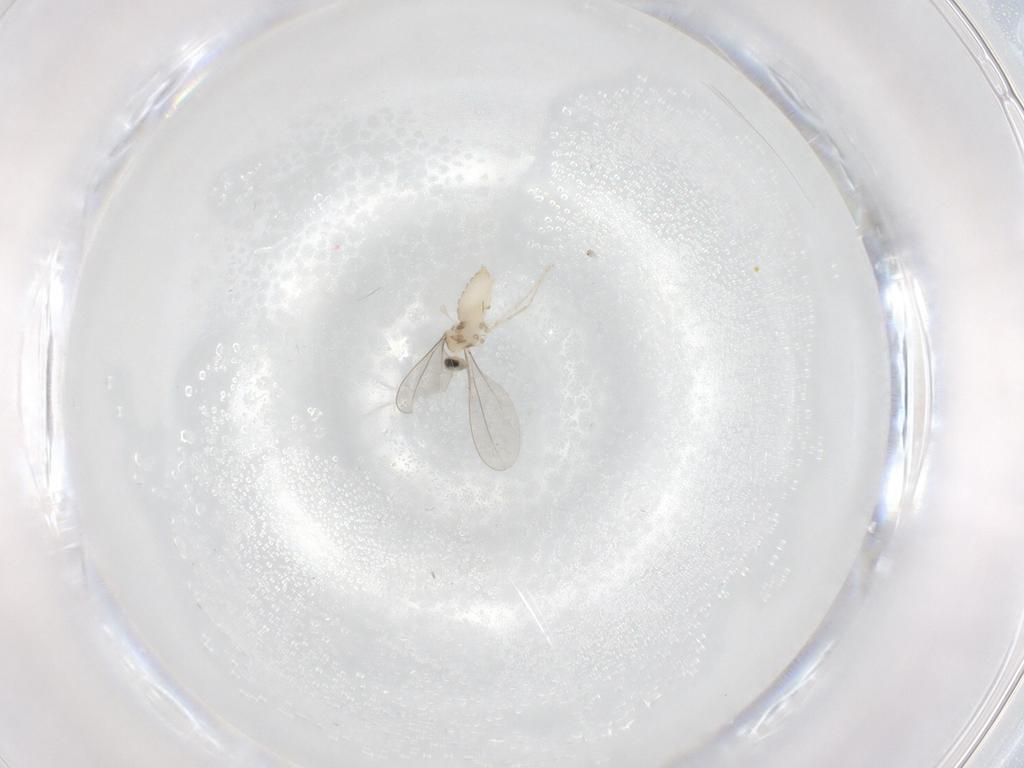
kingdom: Animalia
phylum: Arthropoda
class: Insecta
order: Diptera
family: Cecidomyiidae
